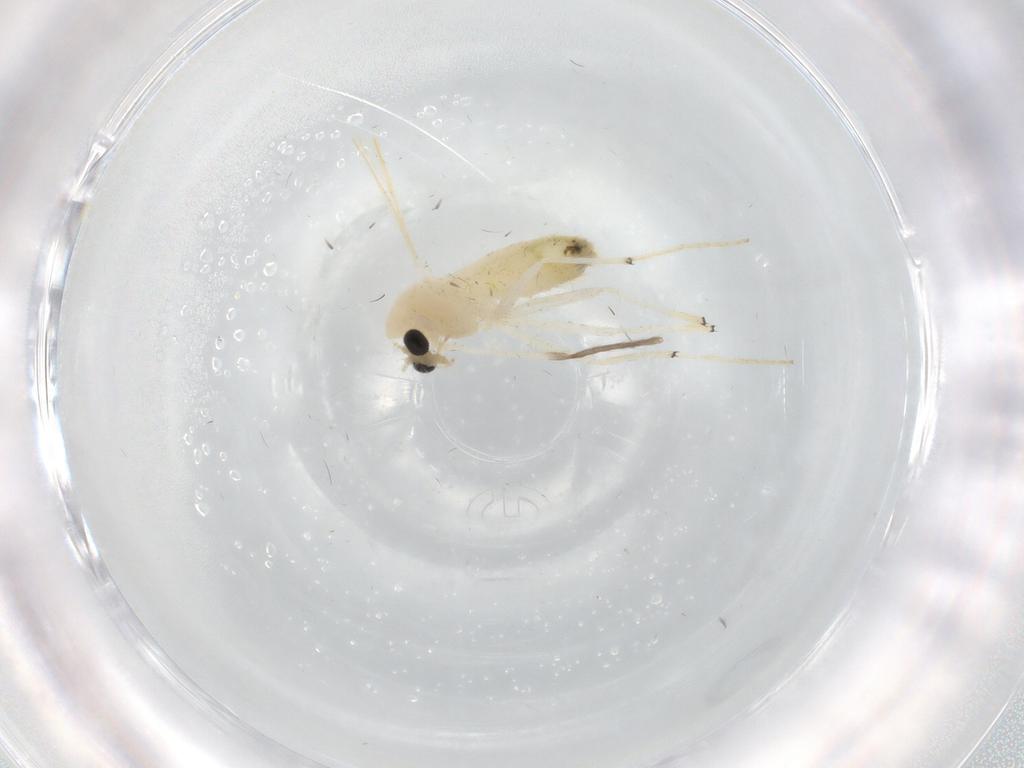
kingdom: Animalia
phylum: Arthropoda
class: Insecta
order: Diptera
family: Chironomidae
